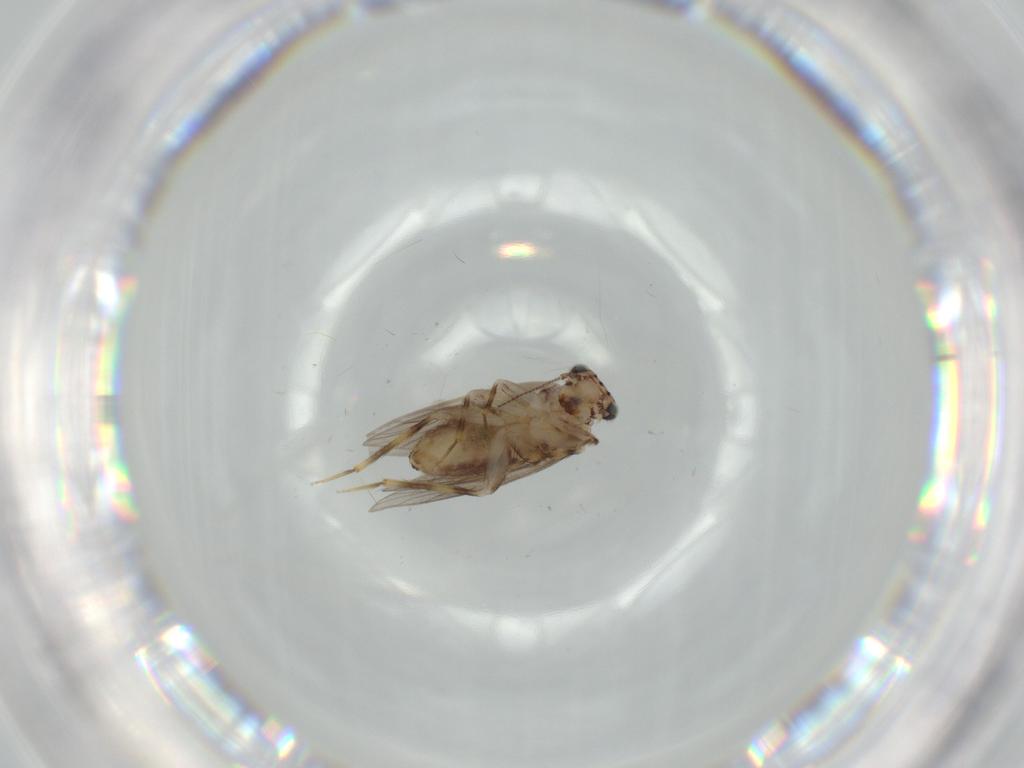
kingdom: Animalia
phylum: Arthropoda
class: Insecta
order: Psocodea
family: Lepidopsocidae
